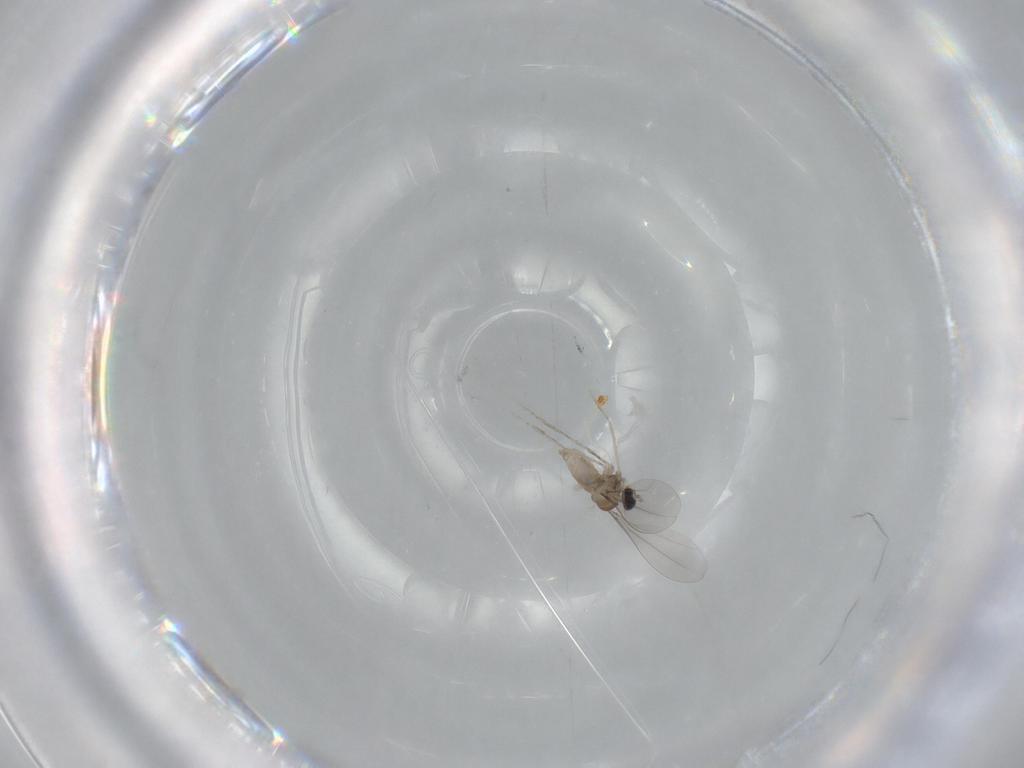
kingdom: Animalia
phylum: Arthropoda
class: Insecta
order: Diptera
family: Cecidomyiidae
